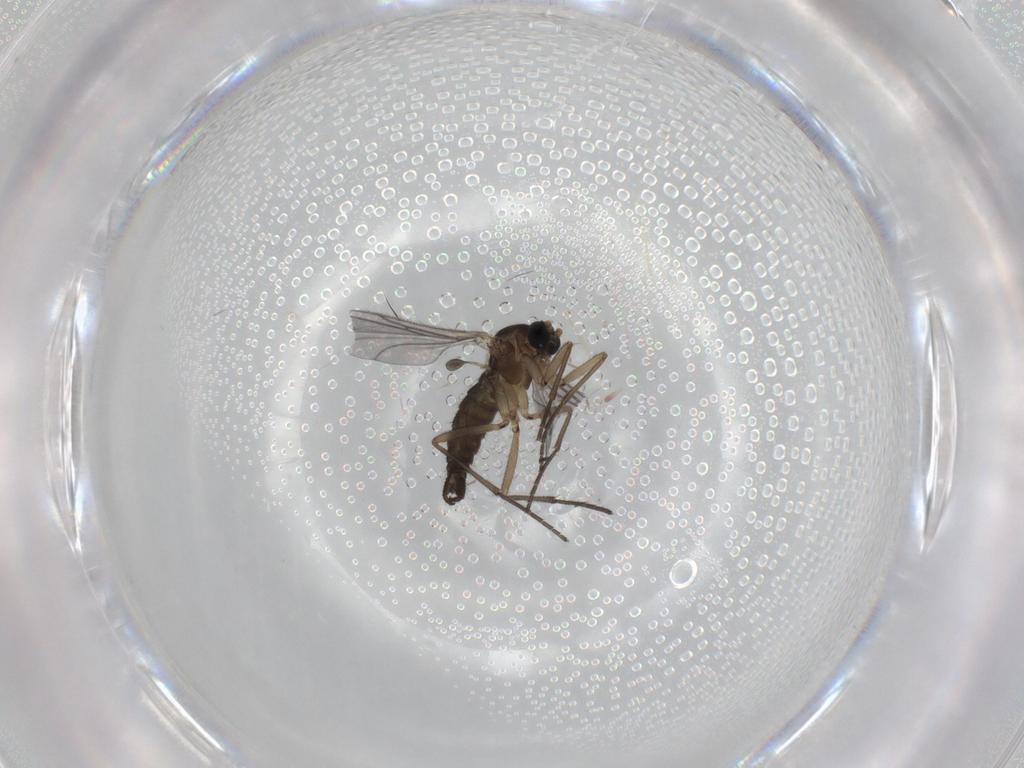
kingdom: Animalia
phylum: Arthropoda
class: Insecta
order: Diptera
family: Sciaridae
